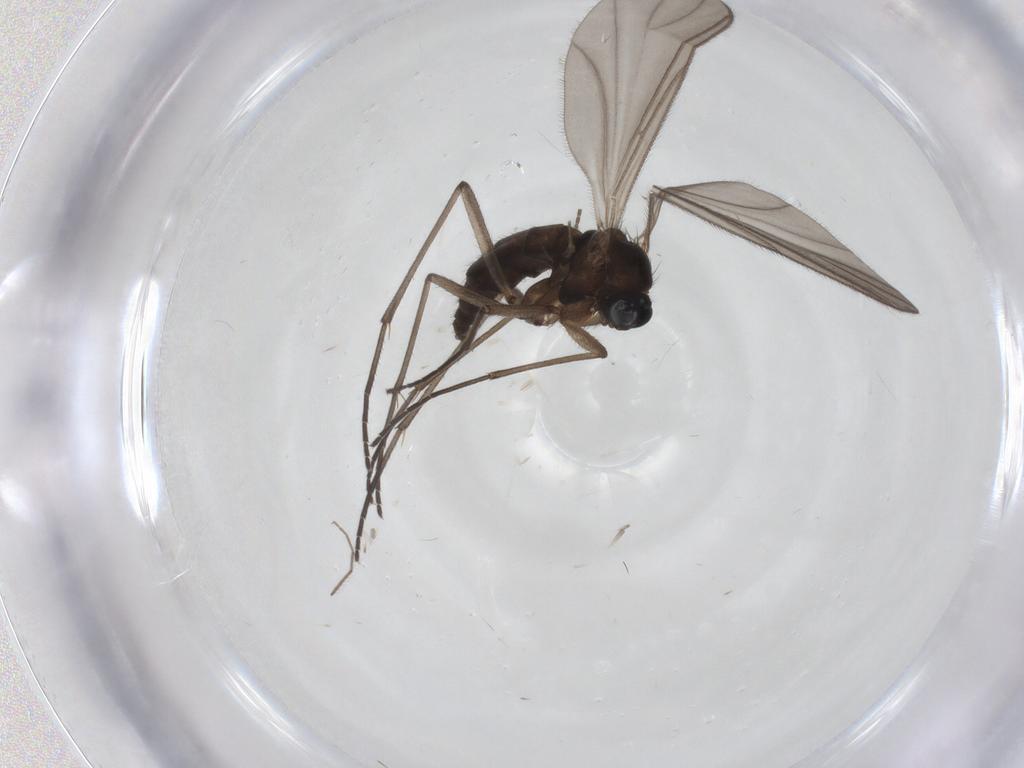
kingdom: Animalia
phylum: Arthropoda
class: Insecta
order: Diptera
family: Sciaridae
